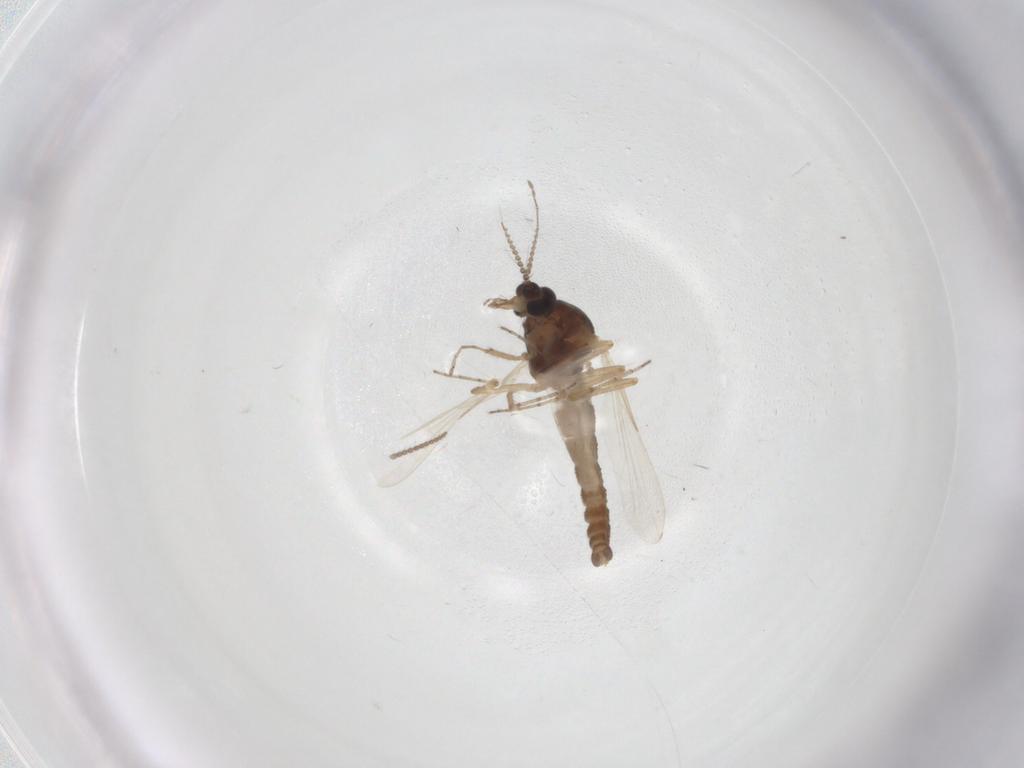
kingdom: Animalia
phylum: Arthropoda
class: Insecta
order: Diptera
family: Ceratopogonidae
